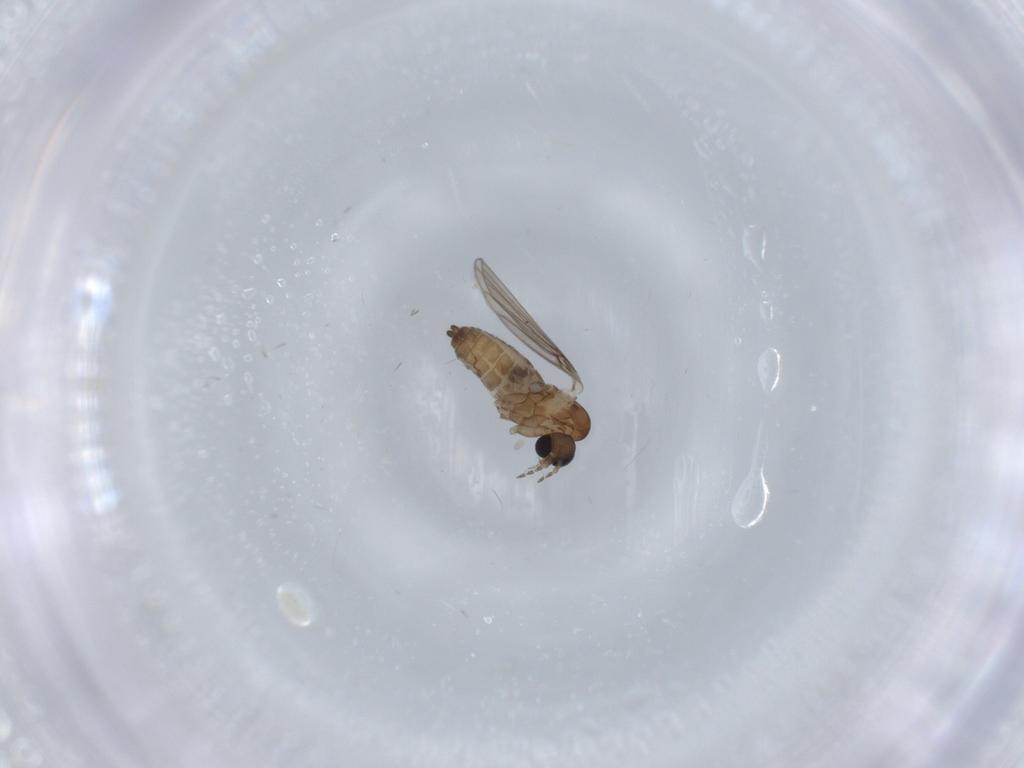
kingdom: Animalia
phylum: Arthropoda
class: Insecta
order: Diptera
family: Psychodidae
